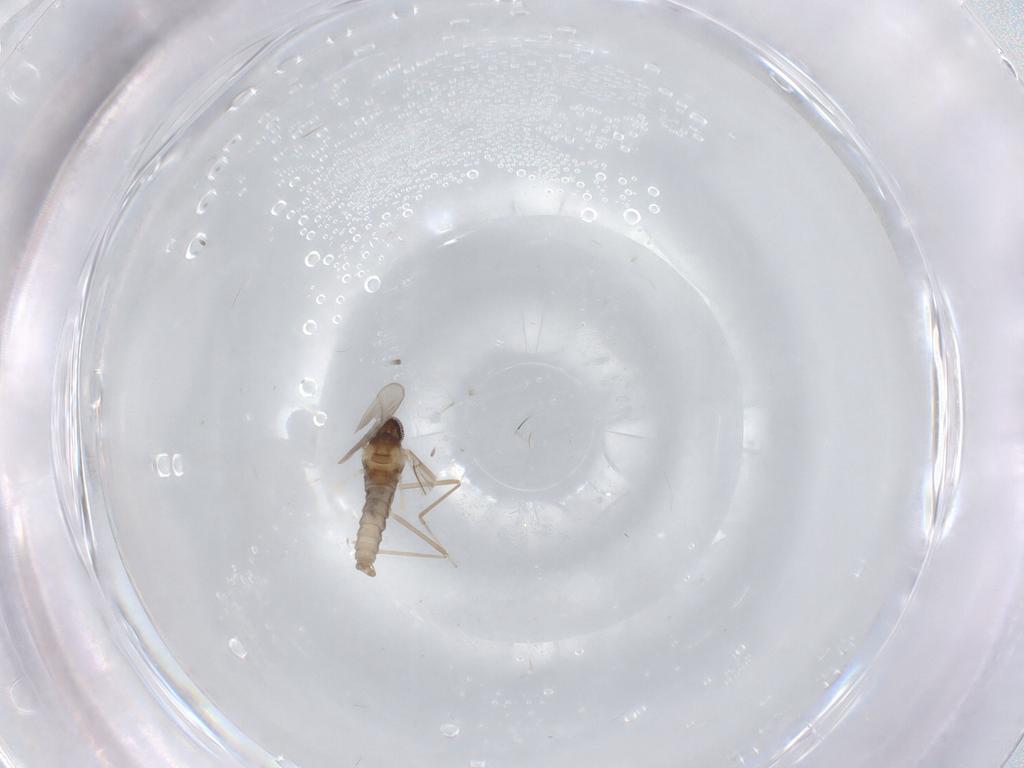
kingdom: Animalia
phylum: Arthropoda
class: Insecta
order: Diptera
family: Cecidomyiidae
